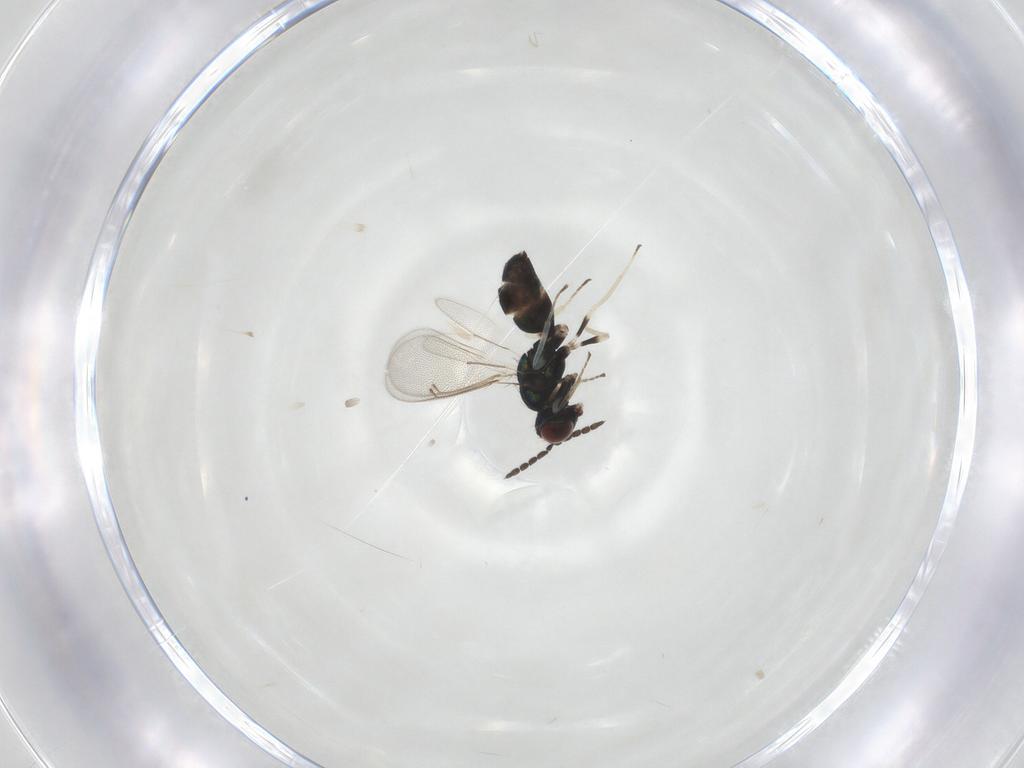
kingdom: Animalia
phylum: Arthropoda
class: Insecta
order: Hymenoptera
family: Eulophidae
